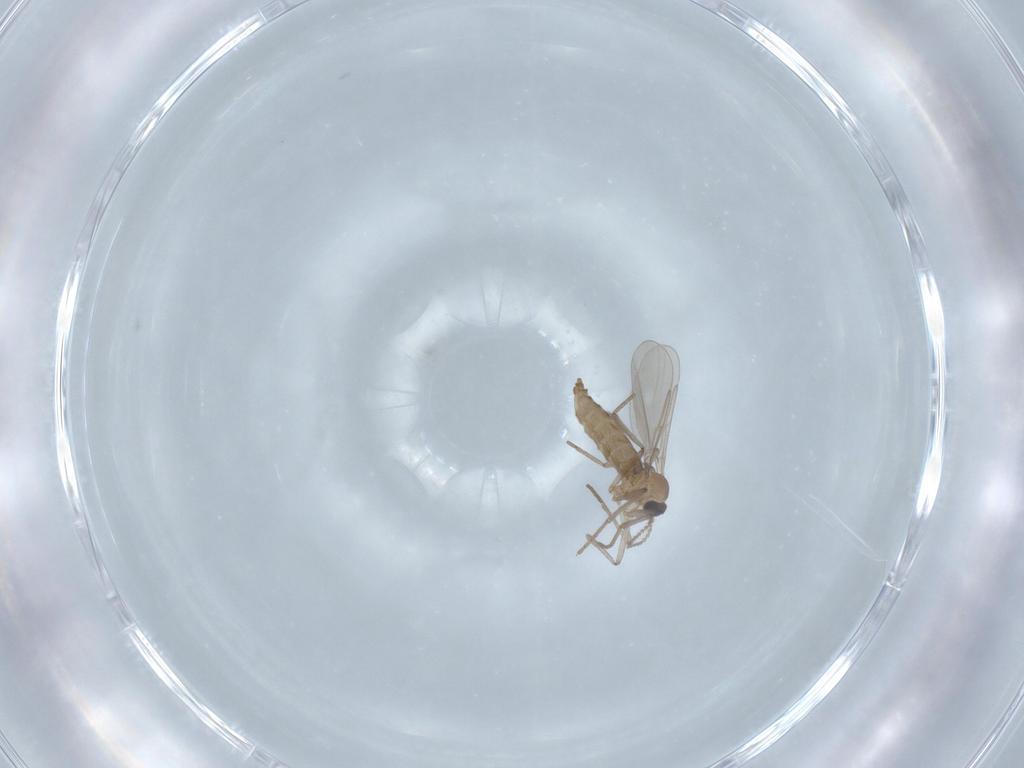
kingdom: Animalia
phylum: Arthropoda
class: Insecta
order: Diptera
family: Cecidomyiidae
